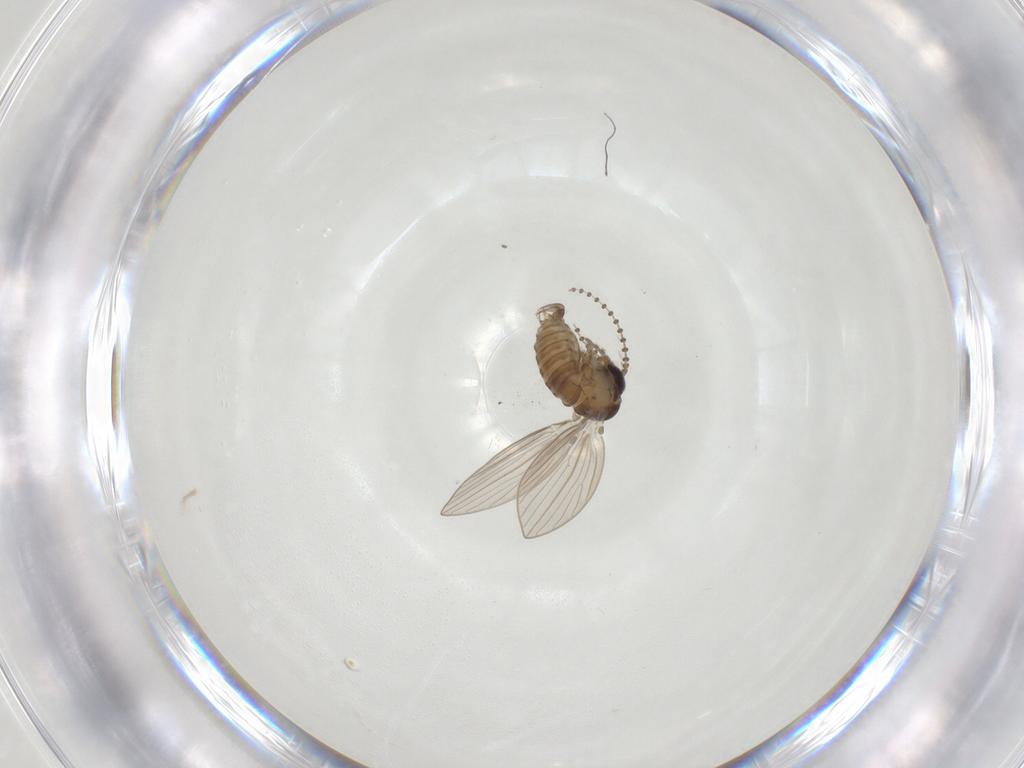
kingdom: Animalia
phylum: Arthropoda
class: Insecta
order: Diptera
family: Psychodidae
